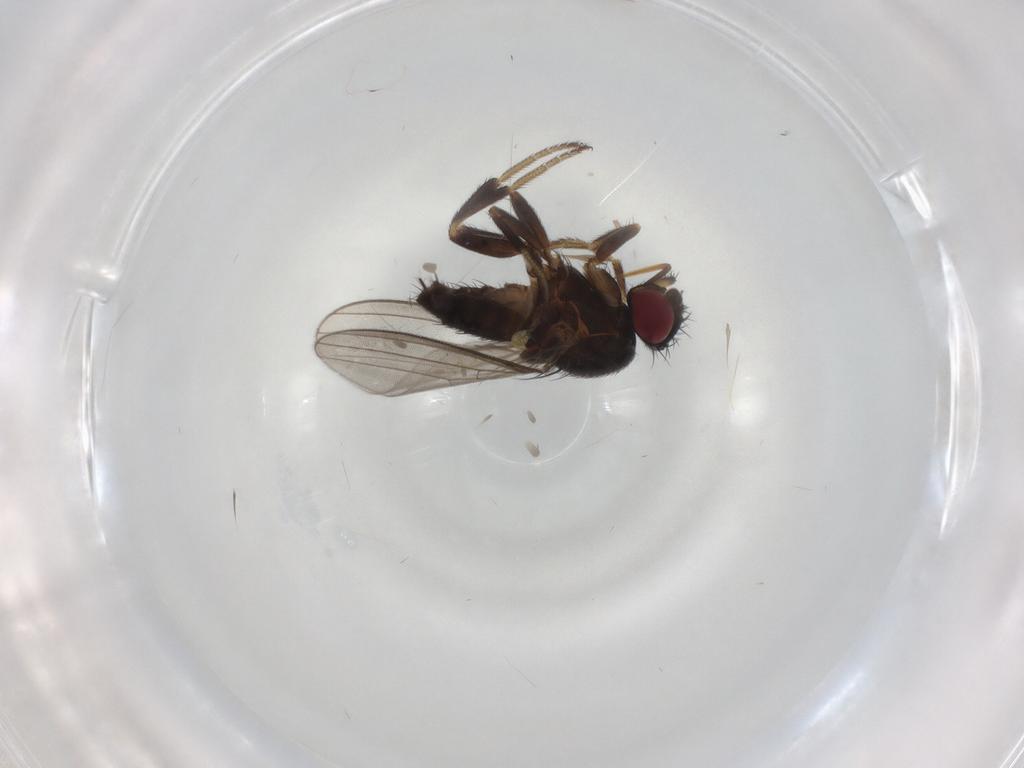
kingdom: Animalia
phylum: Arthropoda
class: Insecta
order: Diptera
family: Milichiidae
